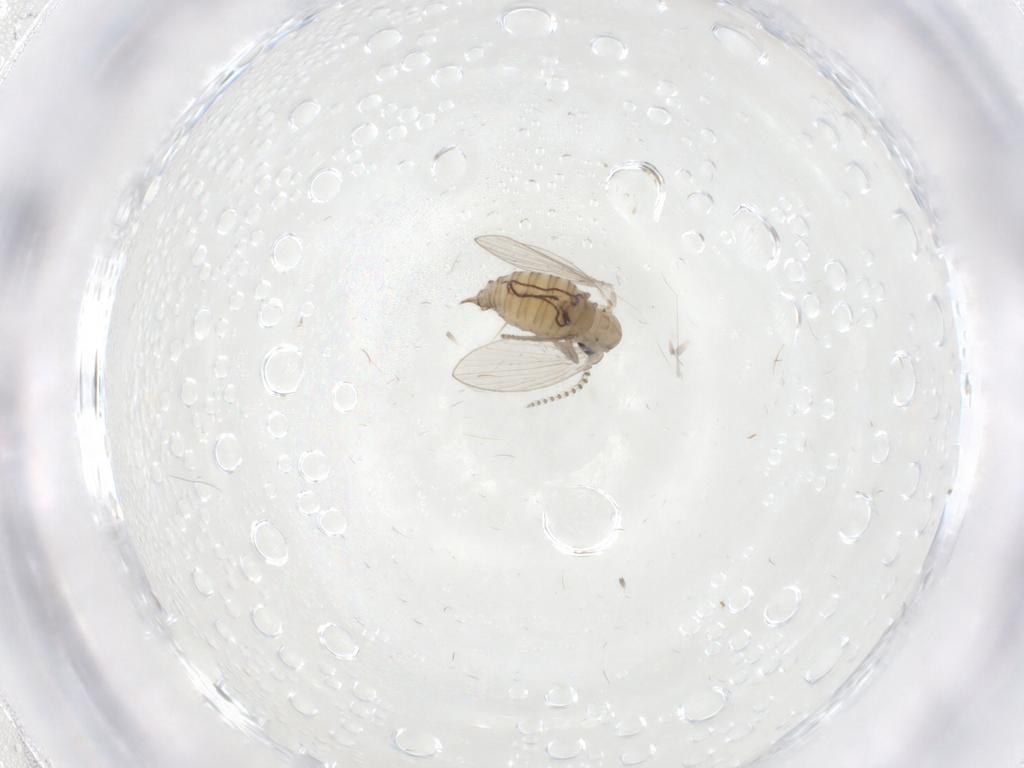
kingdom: Animalia
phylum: Arthropoda
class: Insecta
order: Diptera
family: Psychodidae
